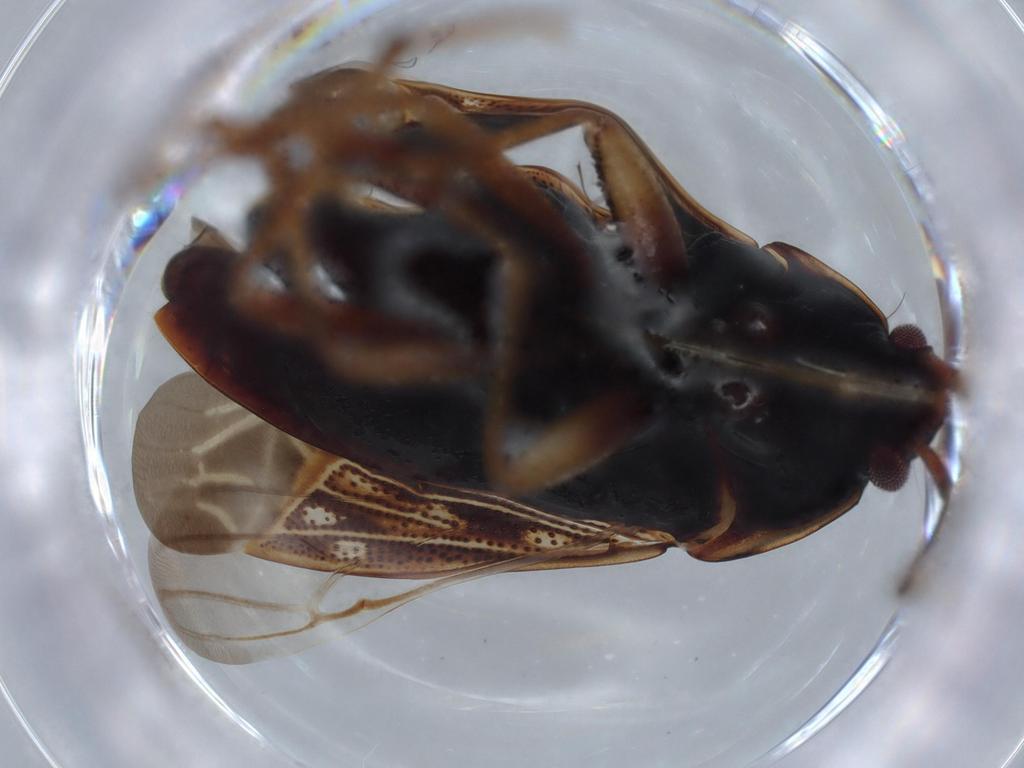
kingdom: Animalia
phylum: Arthropoda
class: Insecta
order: Hemiptera
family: Rhyparochromidae
